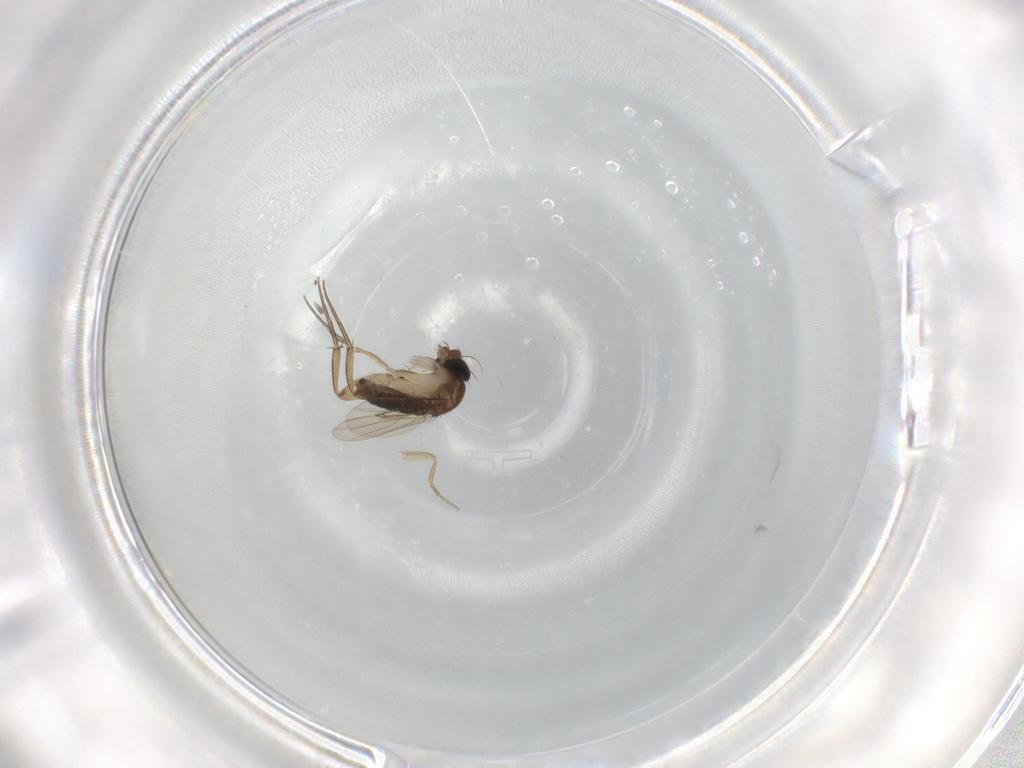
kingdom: Animalia
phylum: Arthropoda
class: Insecta
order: Diptera
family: Phoridae
